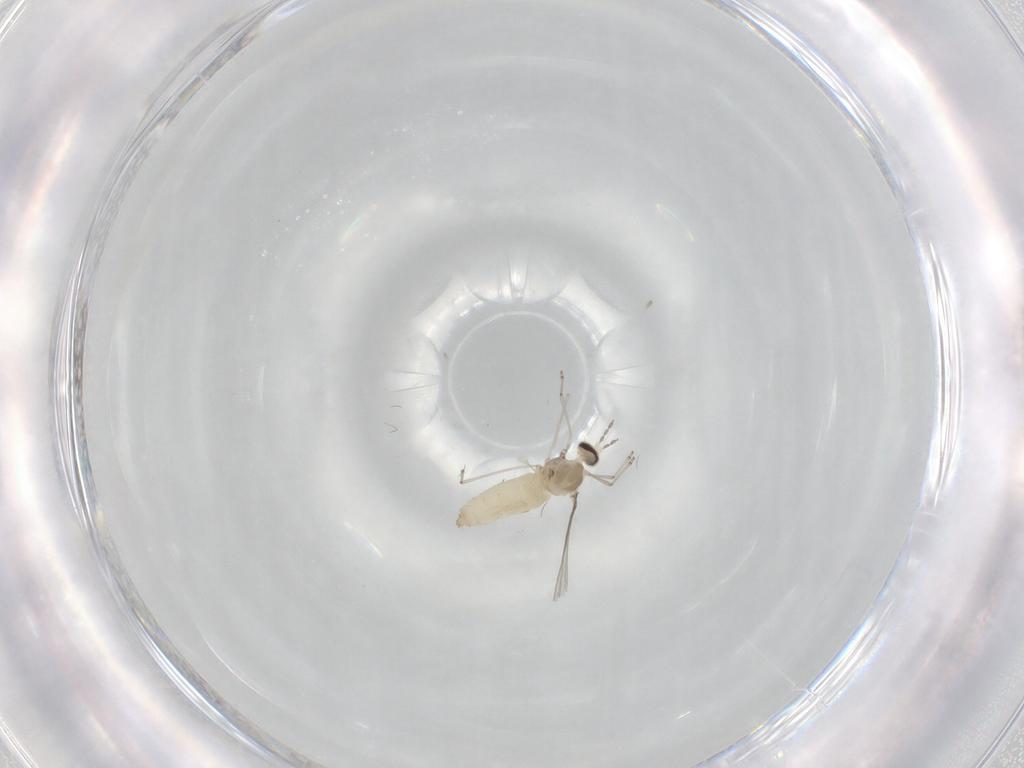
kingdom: Animalia
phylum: Arthropoda
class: Insecta
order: Diptera
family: Cecidomyiidae
